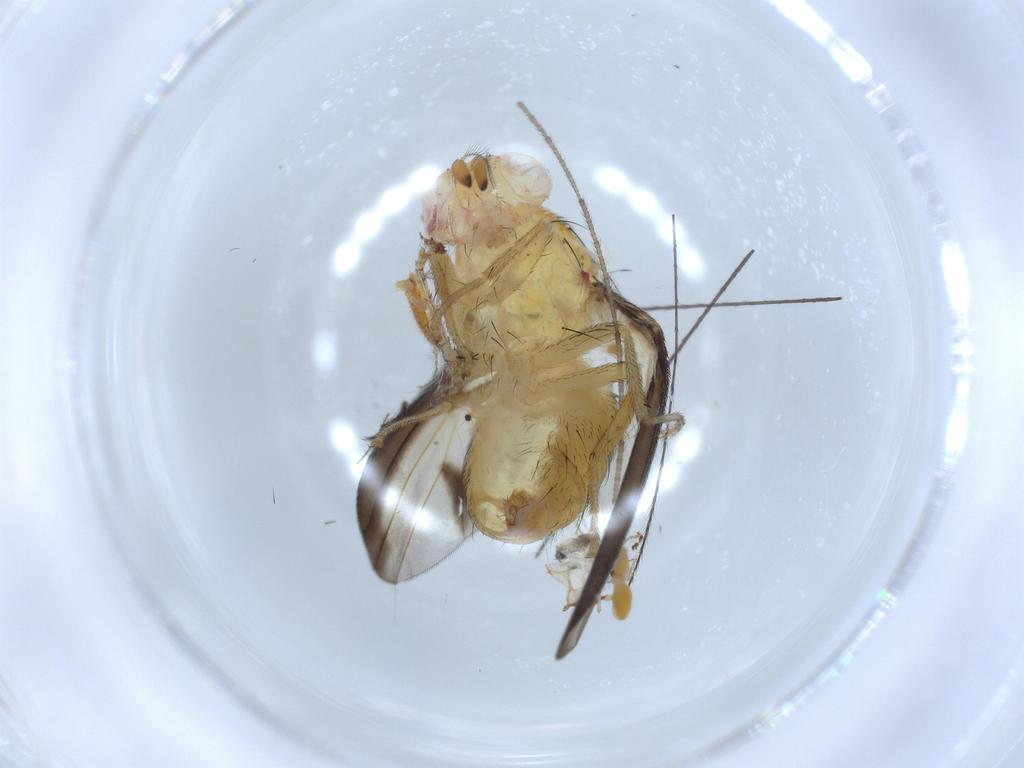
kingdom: Animalia
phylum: Arthropoda
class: Insecta
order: Diptera
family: Lauxaniidae
